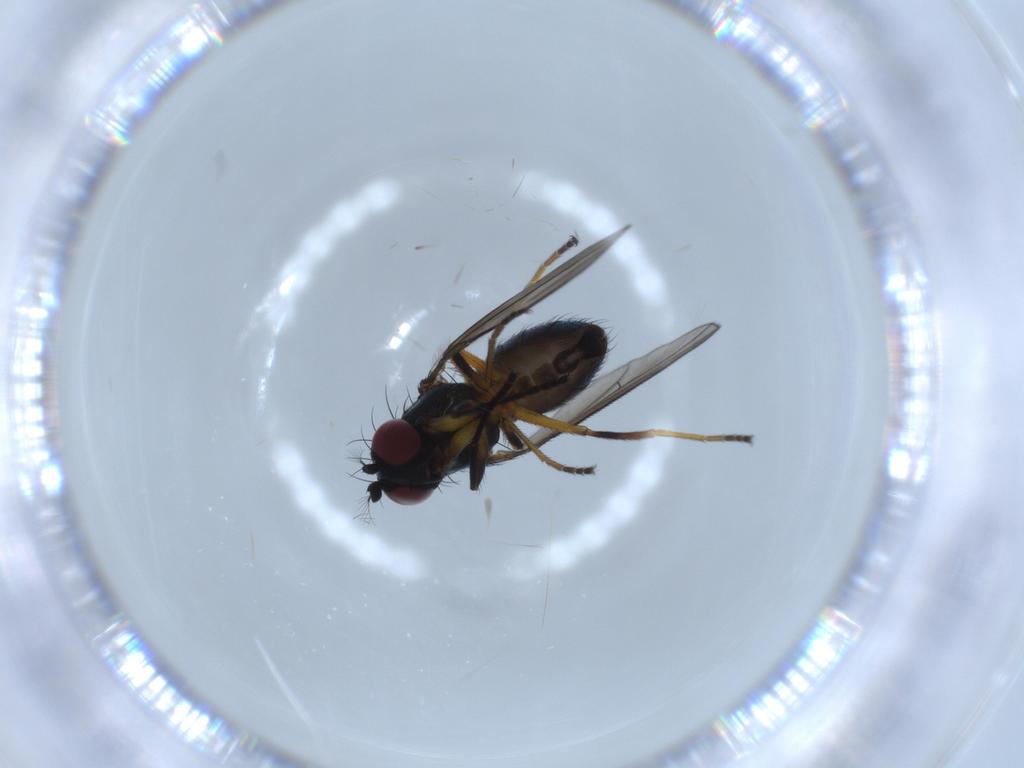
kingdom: Animalia
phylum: Arthropoda
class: Insecta
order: Diptera
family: Ephydridae
